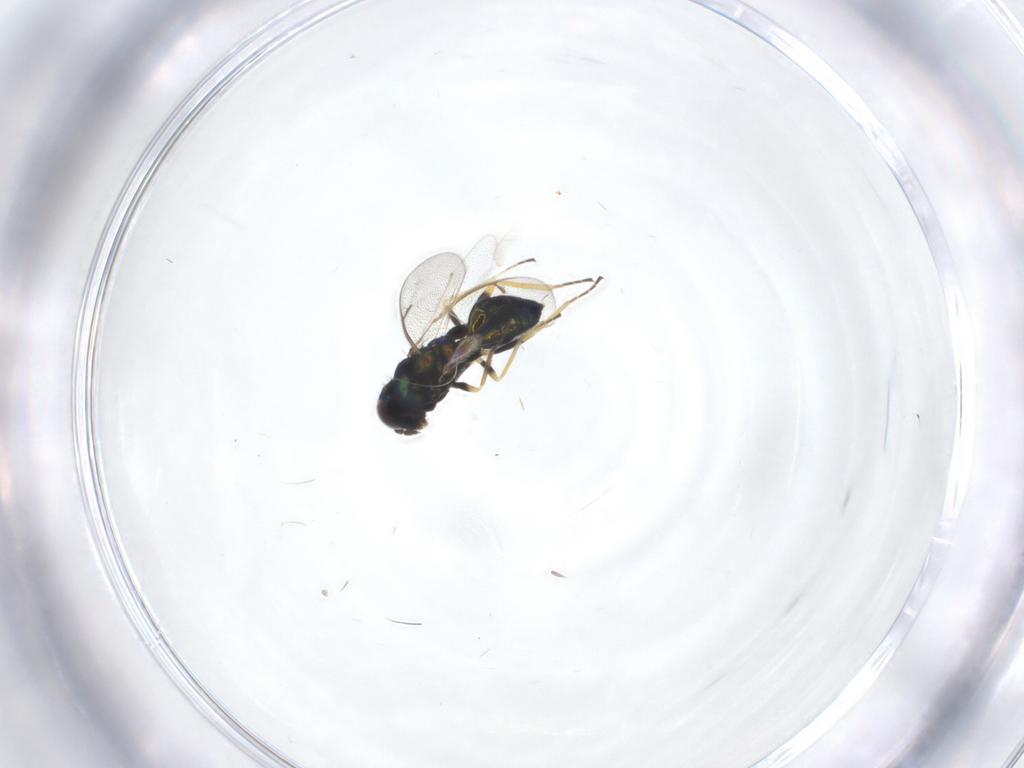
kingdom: Animalia
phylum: Arthropoda
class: Insecta
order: Hymenoptera
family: Eulophidae
